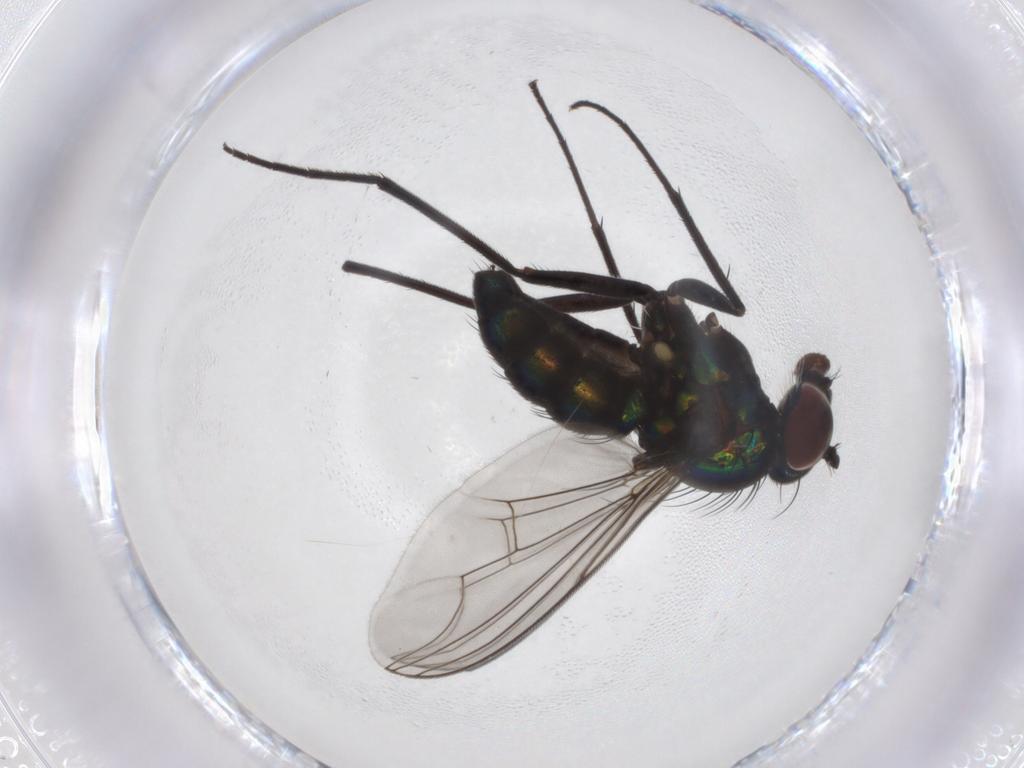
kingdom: Animalia
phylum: Arthropoda
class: Insecta
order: Diptera
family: Dolichopodidae
